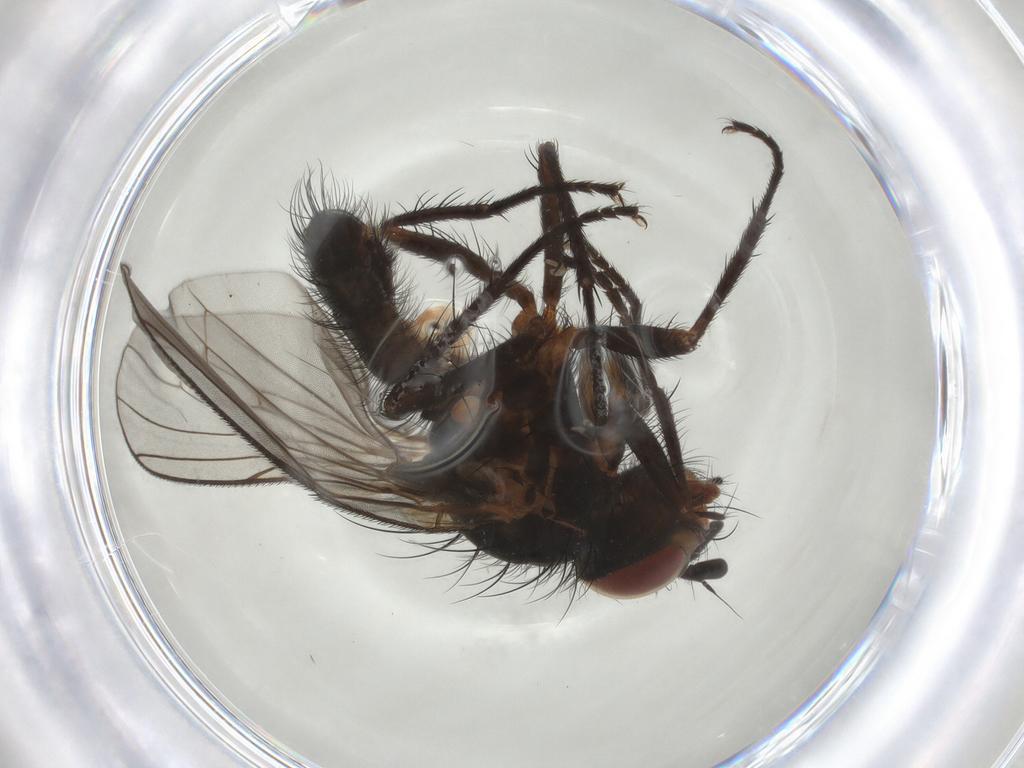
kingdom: Animalia
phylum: Arthropoda
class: Insecta
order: Diptera
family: Anthomyiidae
